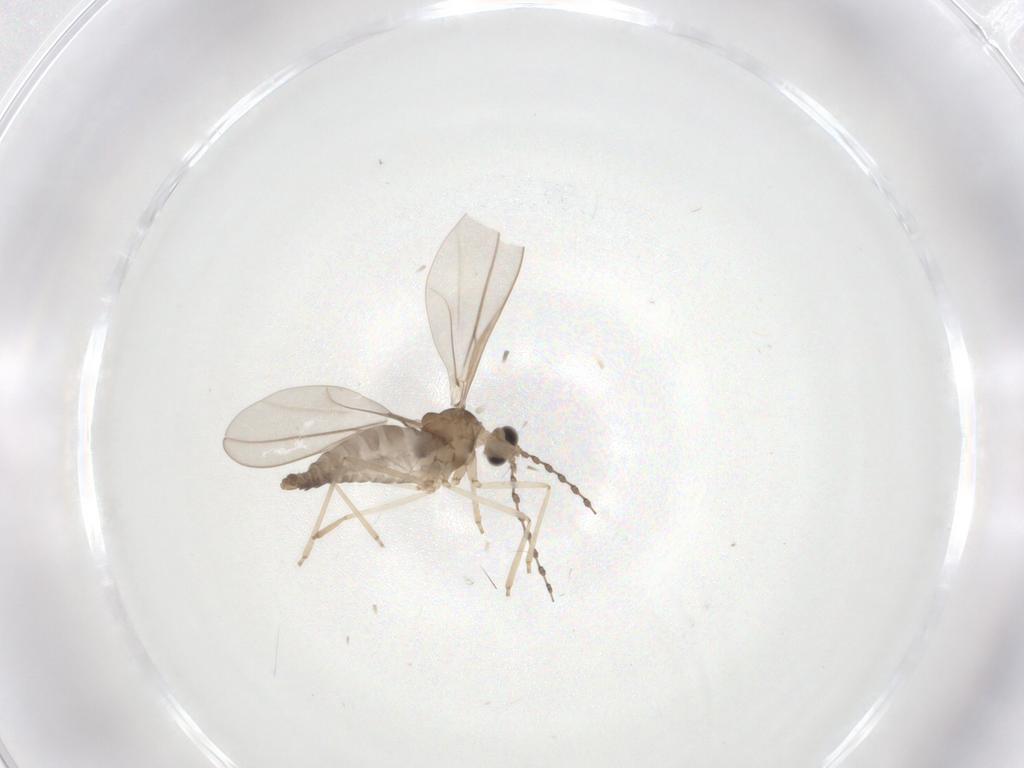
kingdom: Animalia
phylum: Arthropoda
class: Insecta
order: Diptera
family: Cecidomyiidae
